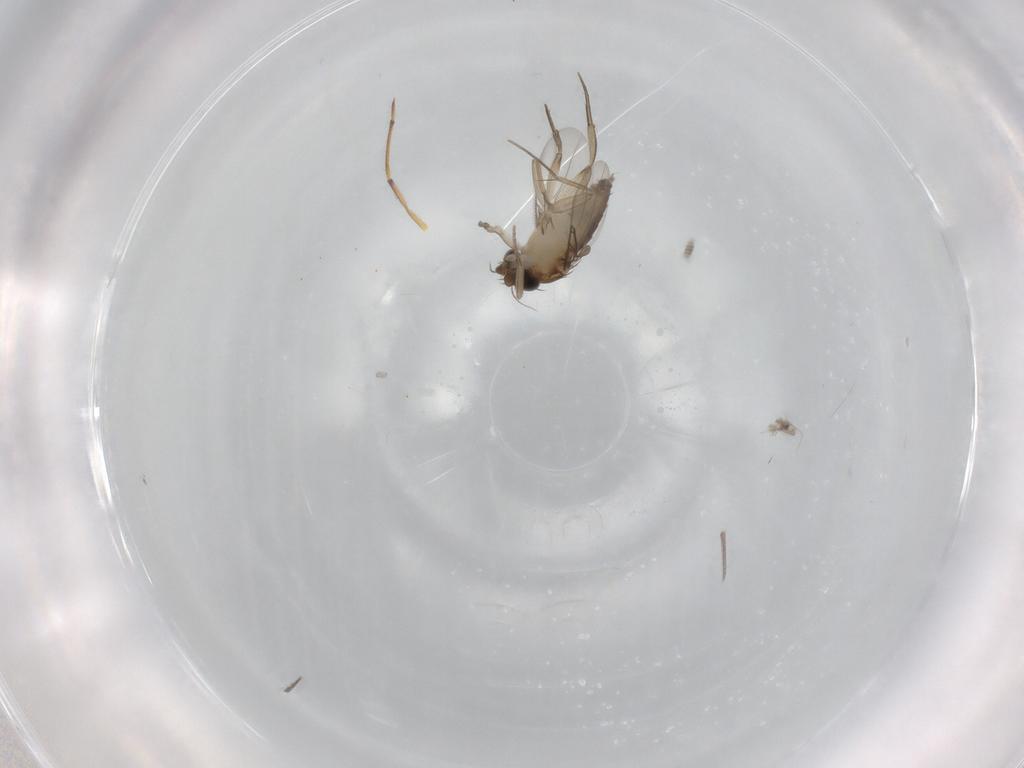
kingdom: Animalia
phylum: Arthropoda
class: Insecta
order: Diptera
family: Phoridae
